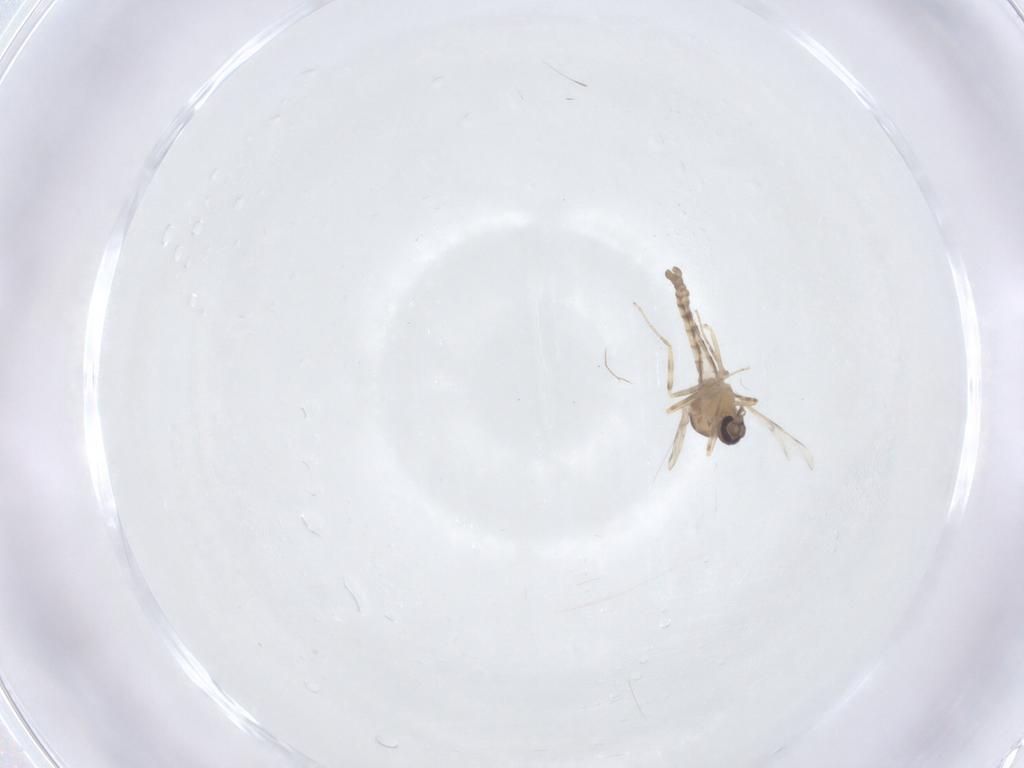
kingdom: Animalia
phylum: Arthropoda
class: Insecta
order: Diptera
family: Ceratopogonidae
